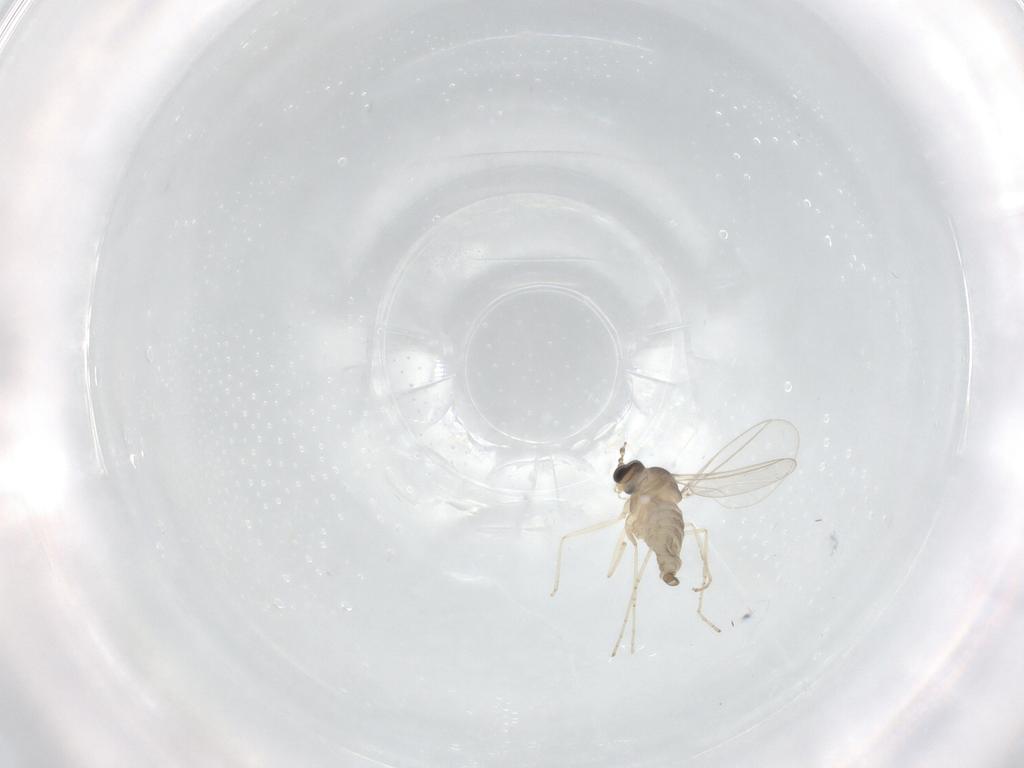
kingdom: Animalia
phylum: Arthropoda
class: Insecta
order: Diptera
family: Cecidomyiidae
